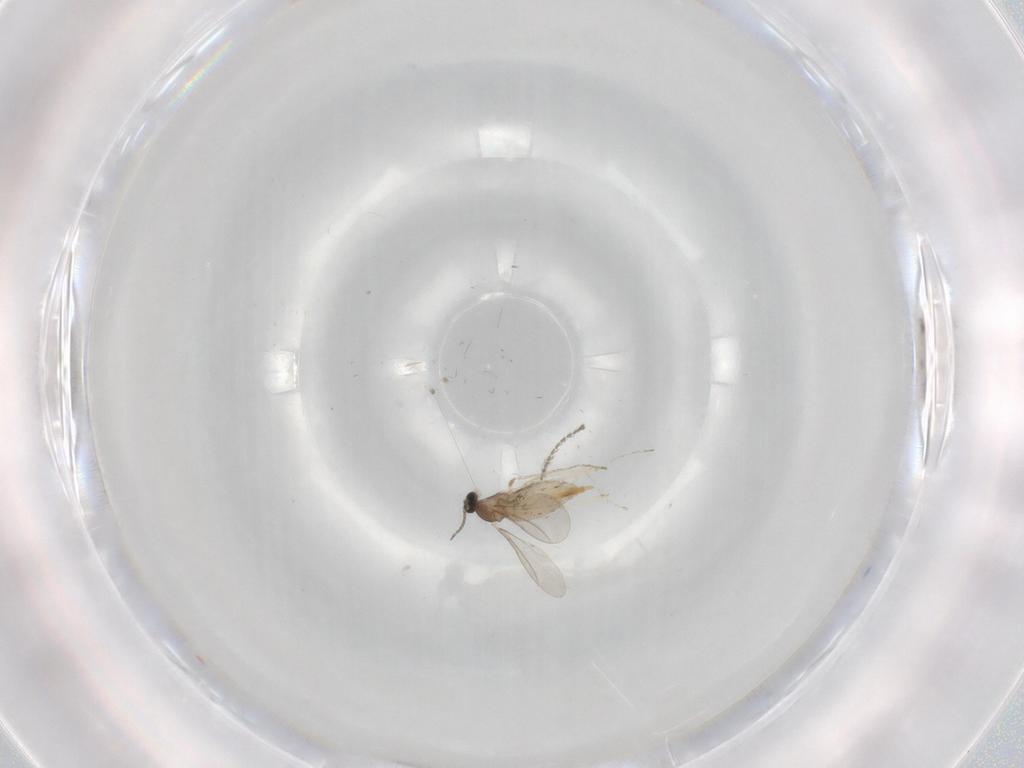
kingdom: Animalia
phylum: Arthropoda
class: Insecta
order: Diptera
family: Cecidomyiidae
